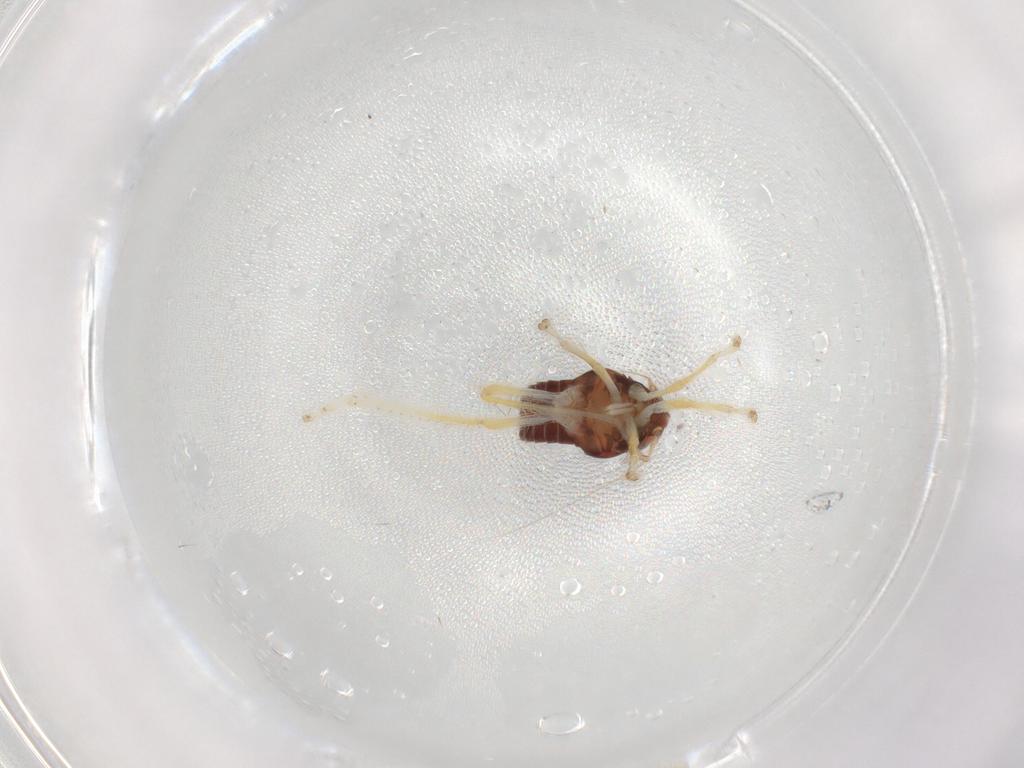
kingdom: Animalia
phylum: Arthropoda
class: Insecta
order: Hemiptera
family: Cicadellidae
